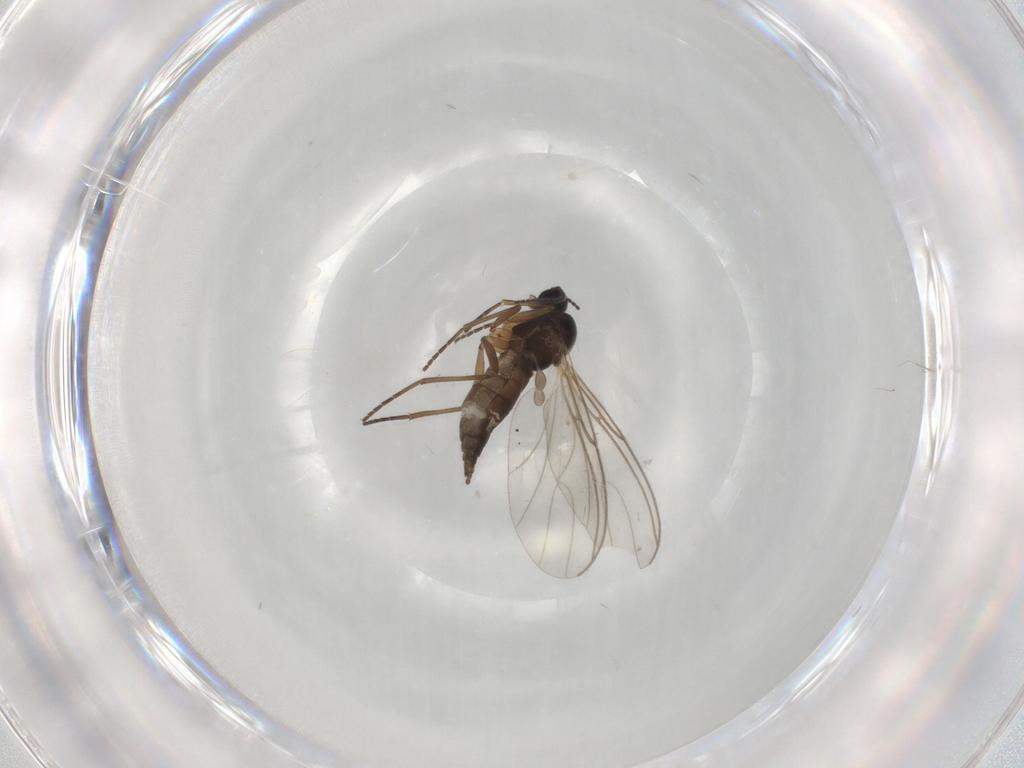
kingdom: Animalia
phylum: Arthropoda
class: Insecta
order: Diptera
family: Sciaridae
